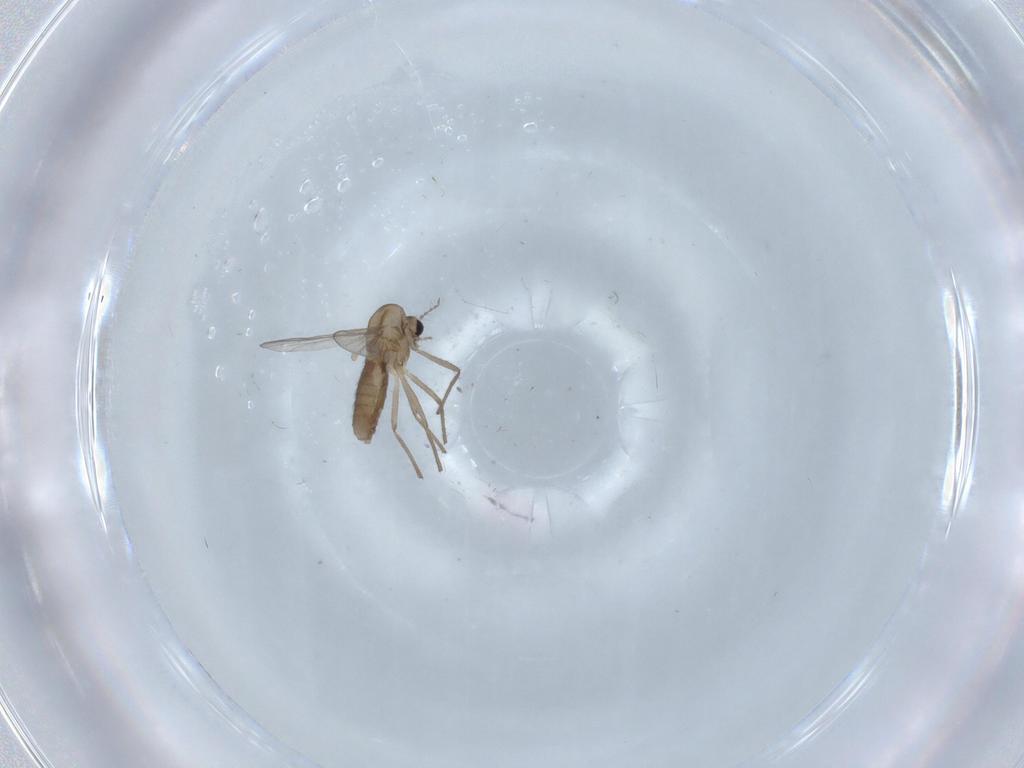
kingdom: Animalia
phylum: Arthropoda
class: Insecta
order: Diptera
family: Chironomidae
